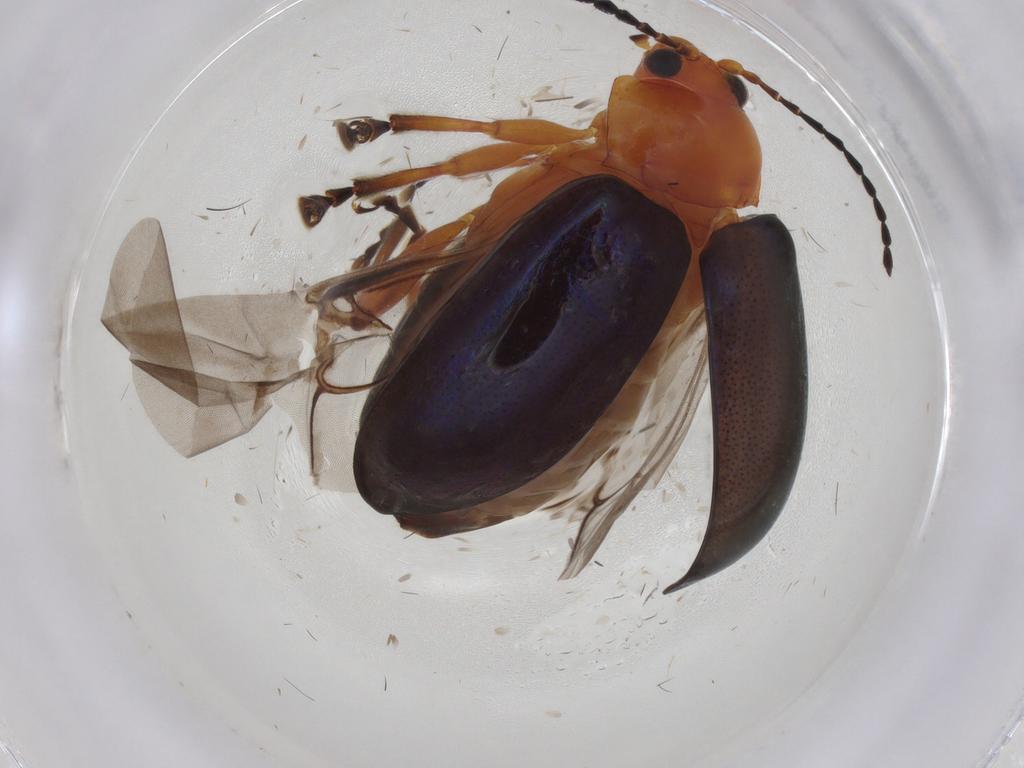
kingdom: Animalia
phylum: Arthropoda
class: Insecta
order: Coleoptera
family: Chrysomelidae
